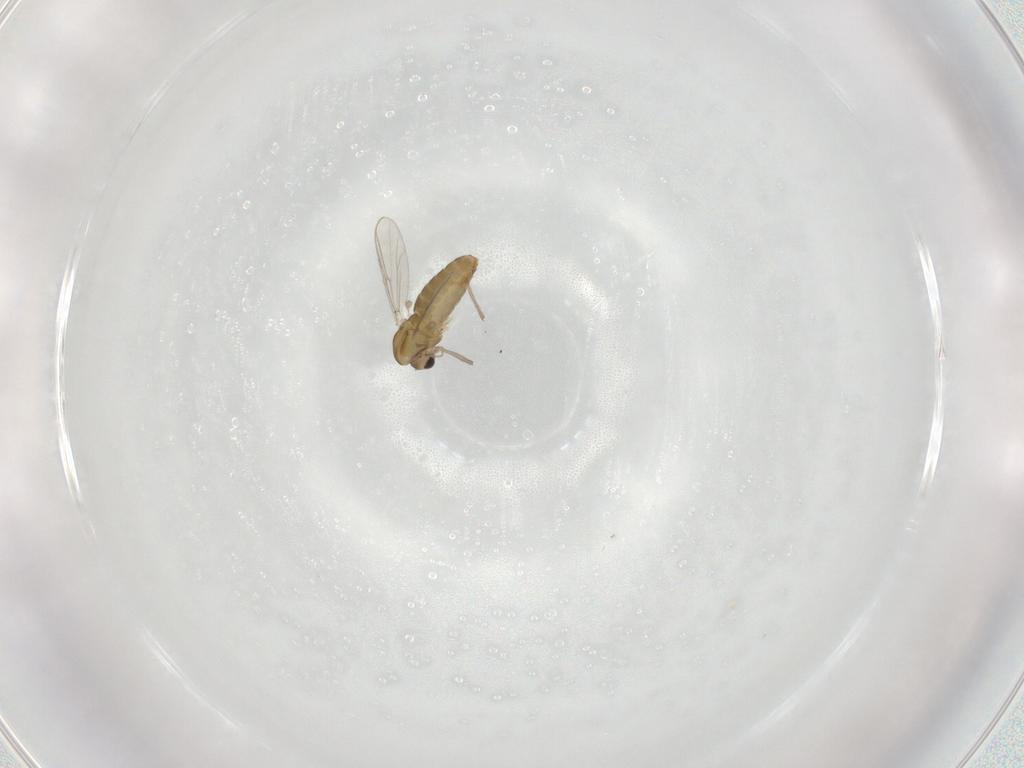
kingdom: Animalia
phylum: Arthropoda
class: Insecta
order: Diptera
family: Chironomidae
